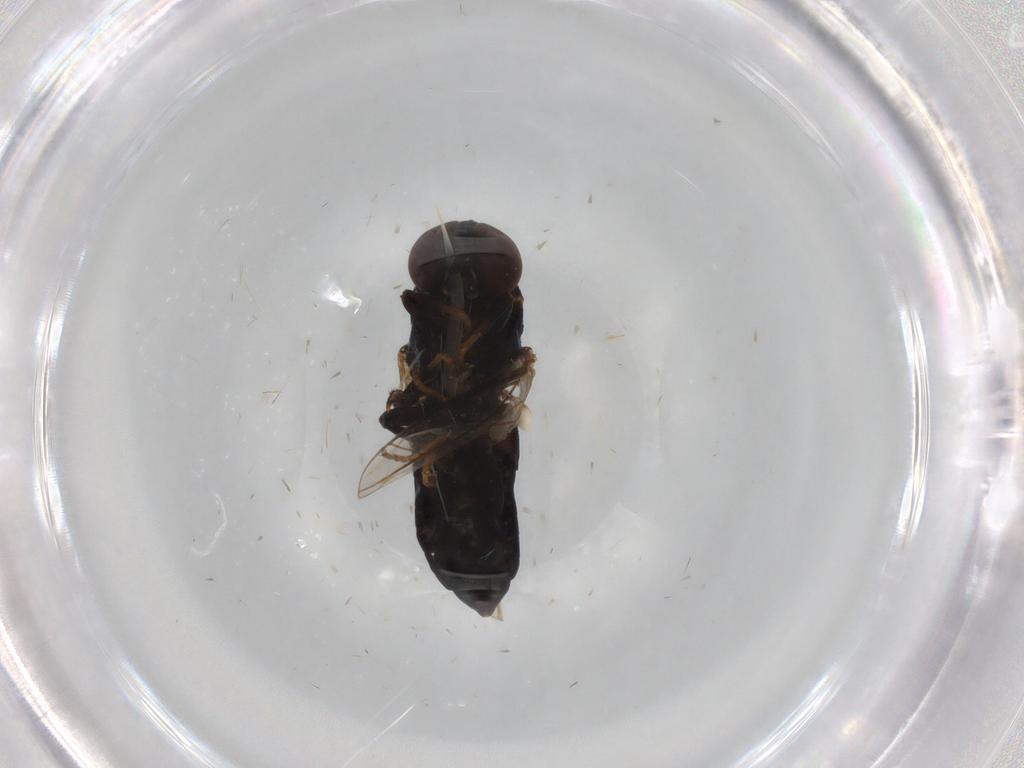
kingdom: Animalia
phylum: Arthropoda
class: Insecta
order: Diptera
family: Scenopinidae
